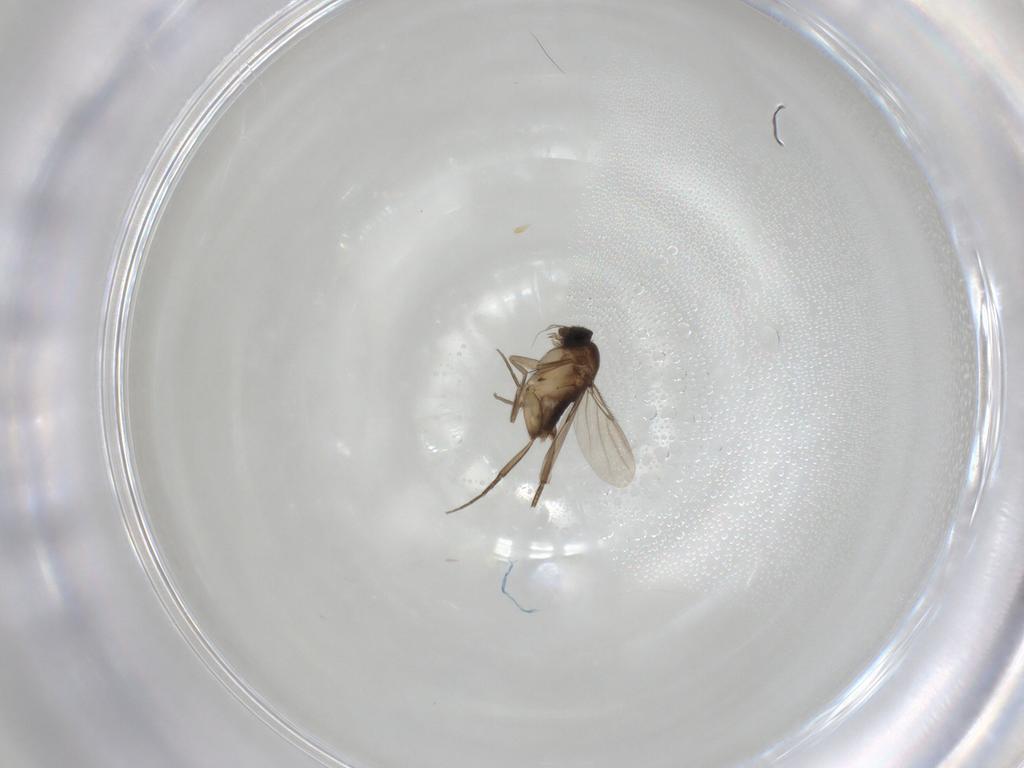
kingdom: Animalia
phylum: Arthropoda
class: Insecta
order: Diptera
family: Phoridae
